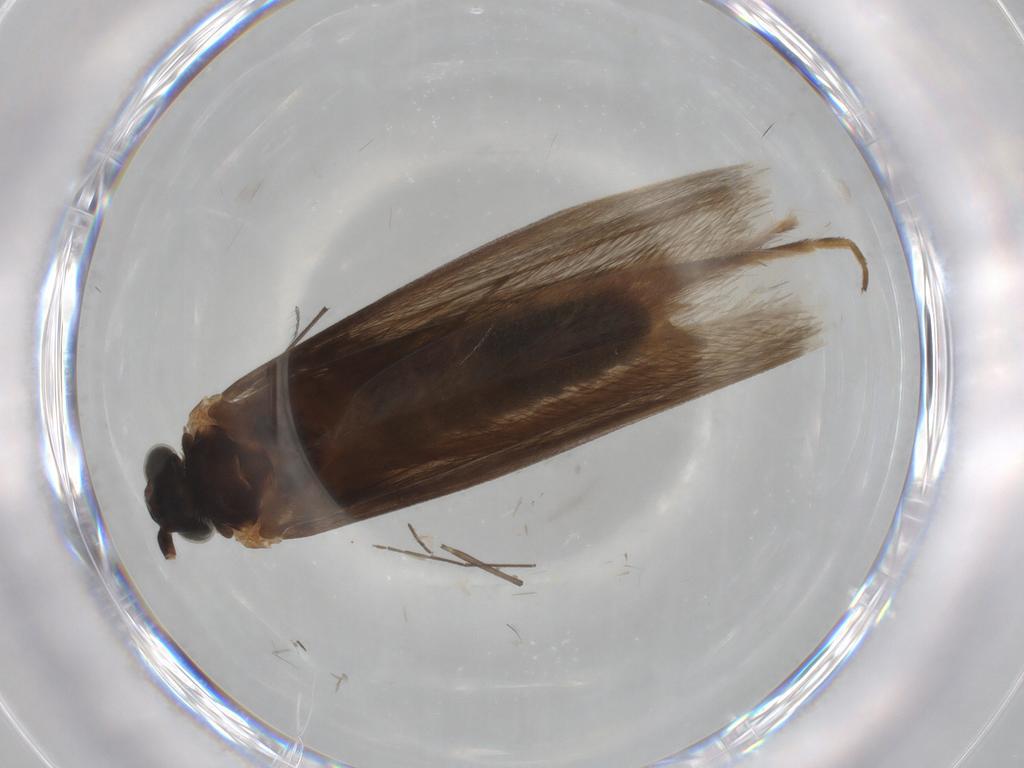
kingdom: Animalia
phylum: Arthropoda
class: Insecta
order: Lepidoptera
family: Adelidae
